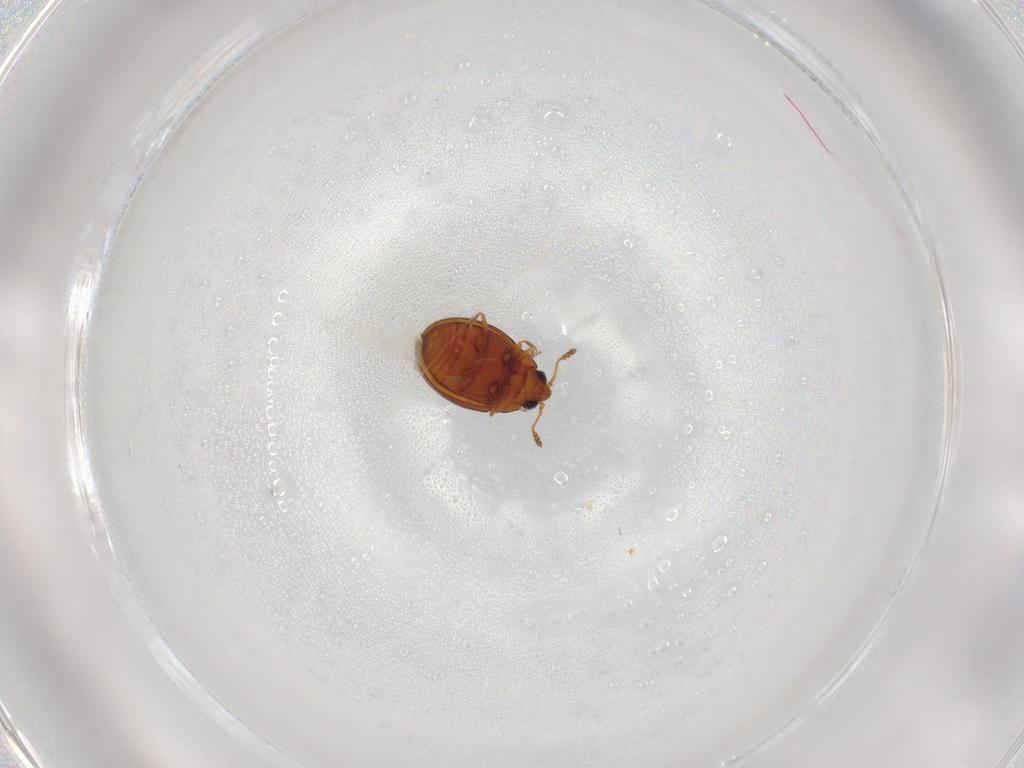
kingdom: Animalia
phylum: Arthropoda
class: Insecta
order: Coleoptera
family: Cryptophagidae
